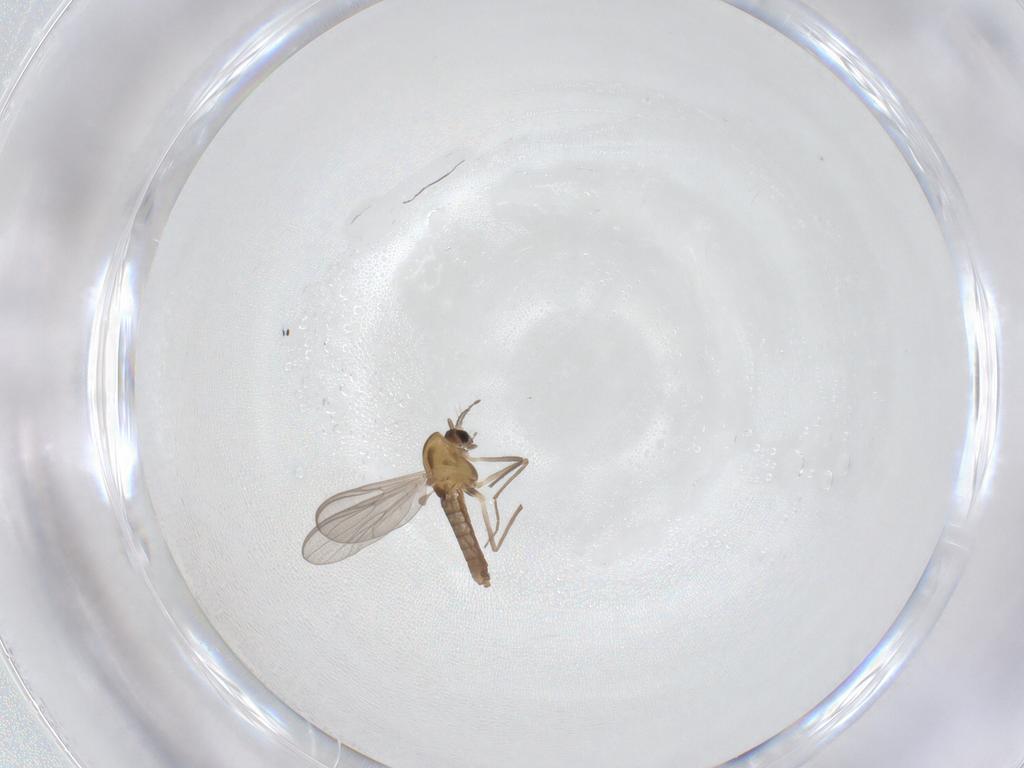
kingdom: Animalia
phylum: Arthropoda
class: Insecta
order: Diptera
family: Chironomidae
